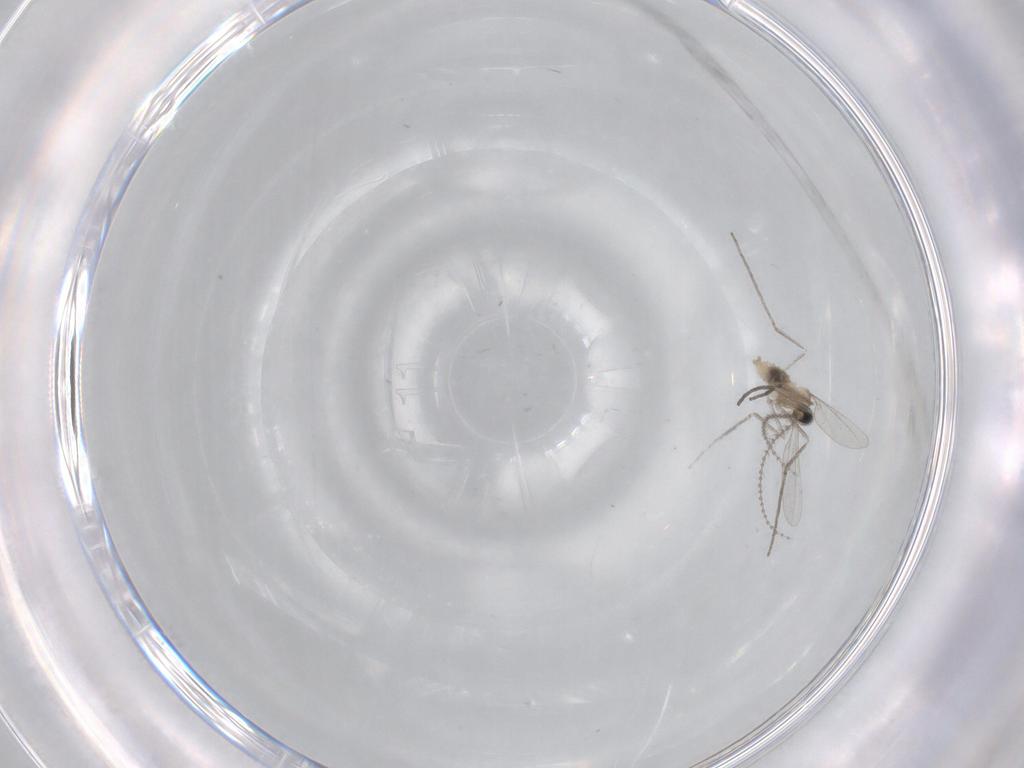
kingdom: Animalia
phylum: Arthropoda
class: Insecta
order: Diptera
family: Cecidomyiidae
